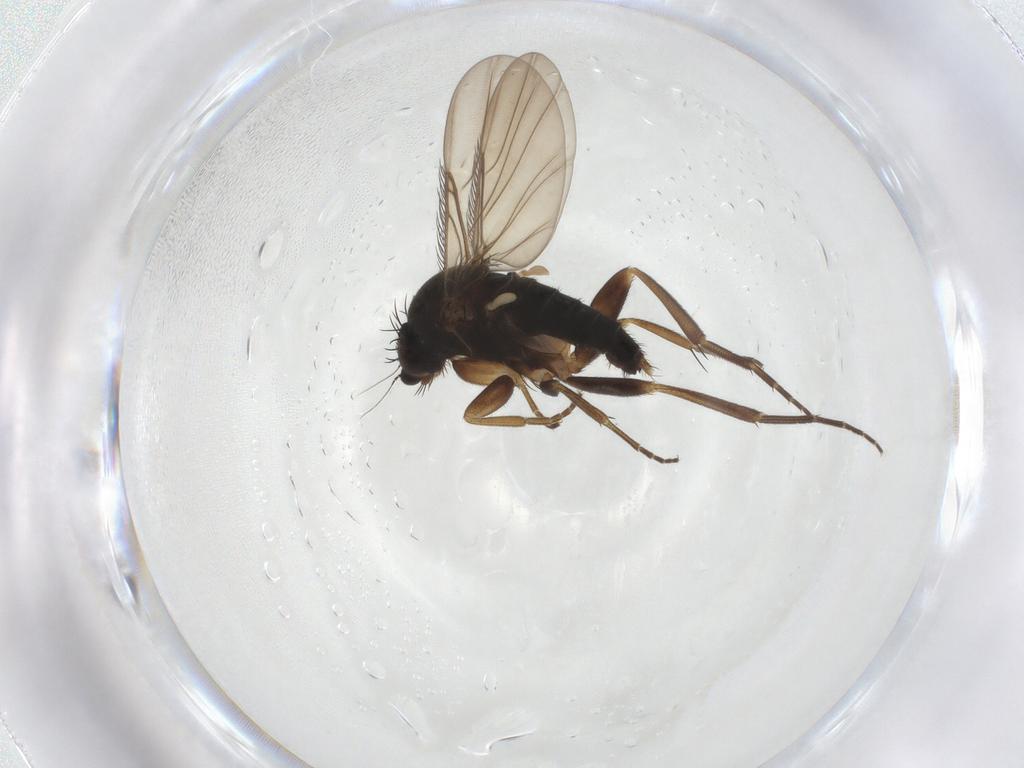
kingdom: Animalia
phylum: Arthropoda
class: Insecta
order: Diptera
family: Phoridae
